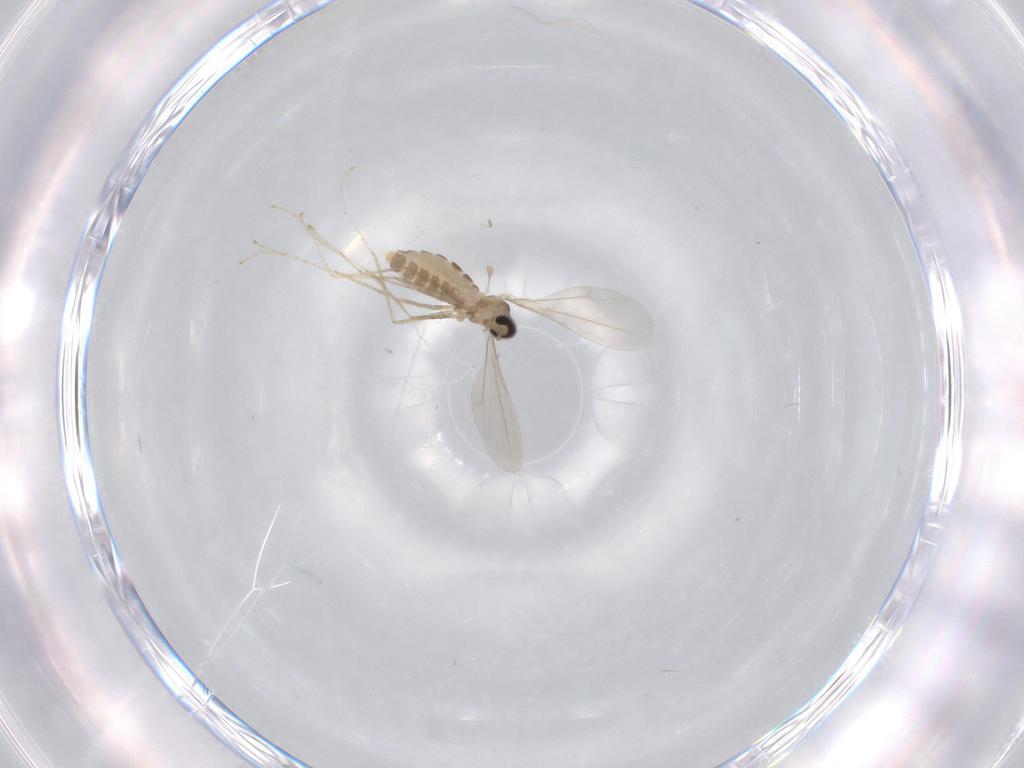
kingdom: Animalia
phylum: Arthropoda
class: Insecta
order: Diptera
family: Cecidomyiidae
